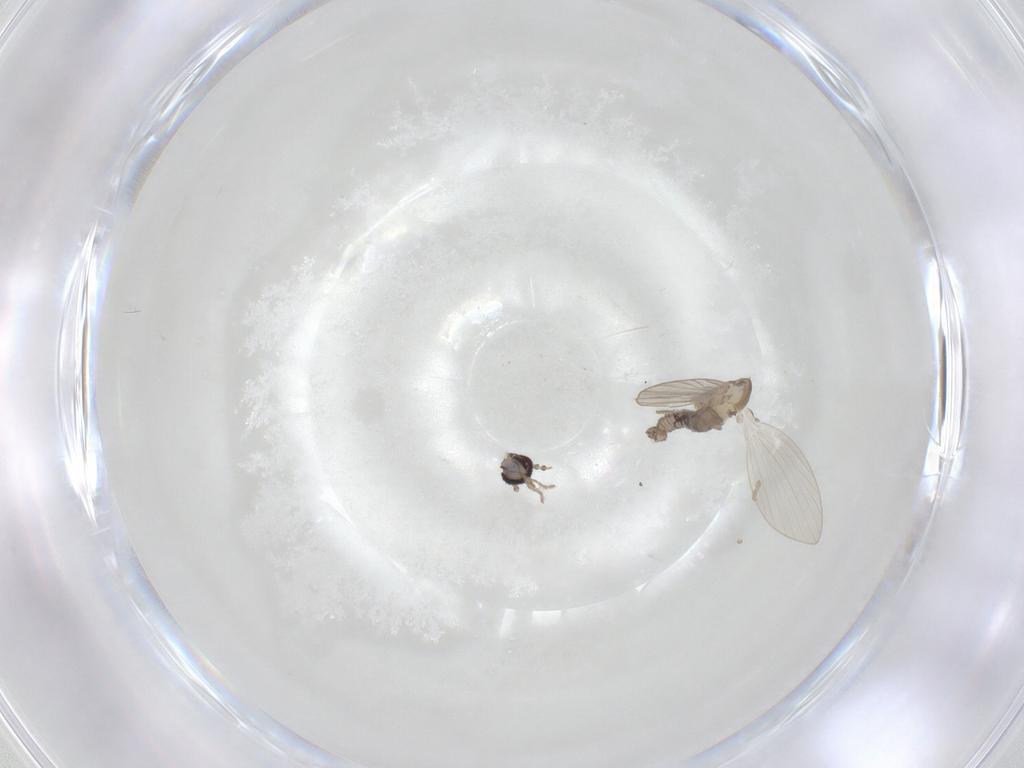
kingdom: Animalia
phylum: Arthropoda
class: Insecta
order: Diptera
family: Psychodidae
